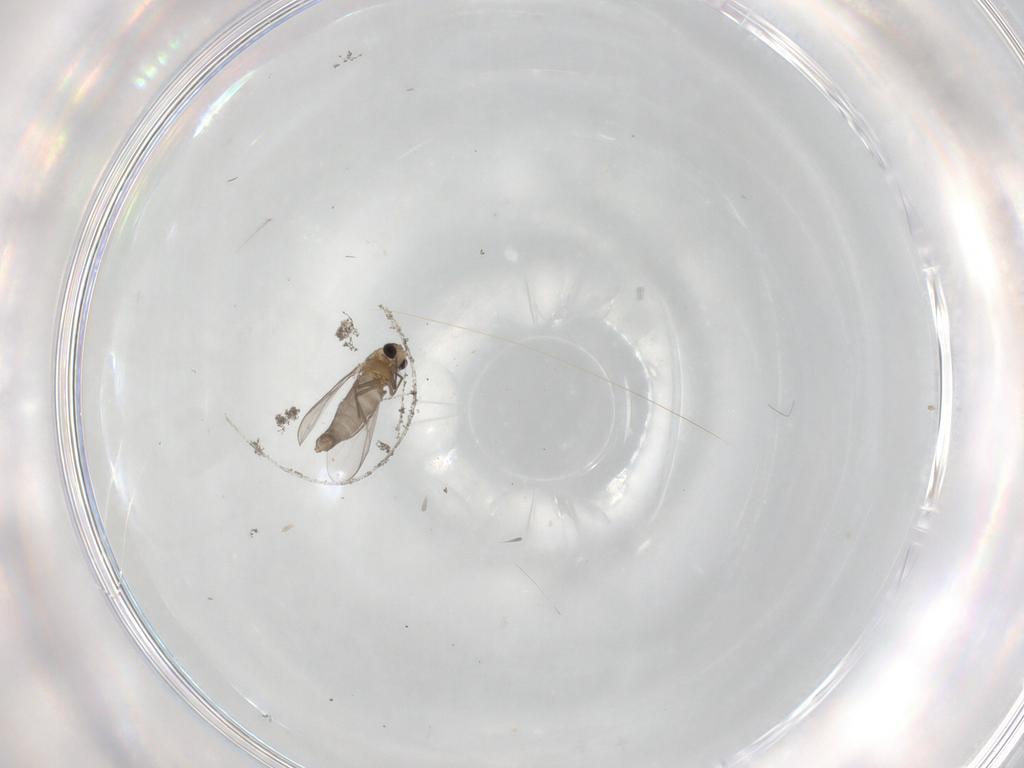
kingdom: Animalia
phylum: Arthropoda
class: Insecta
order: Diptera
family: Chironomidae
